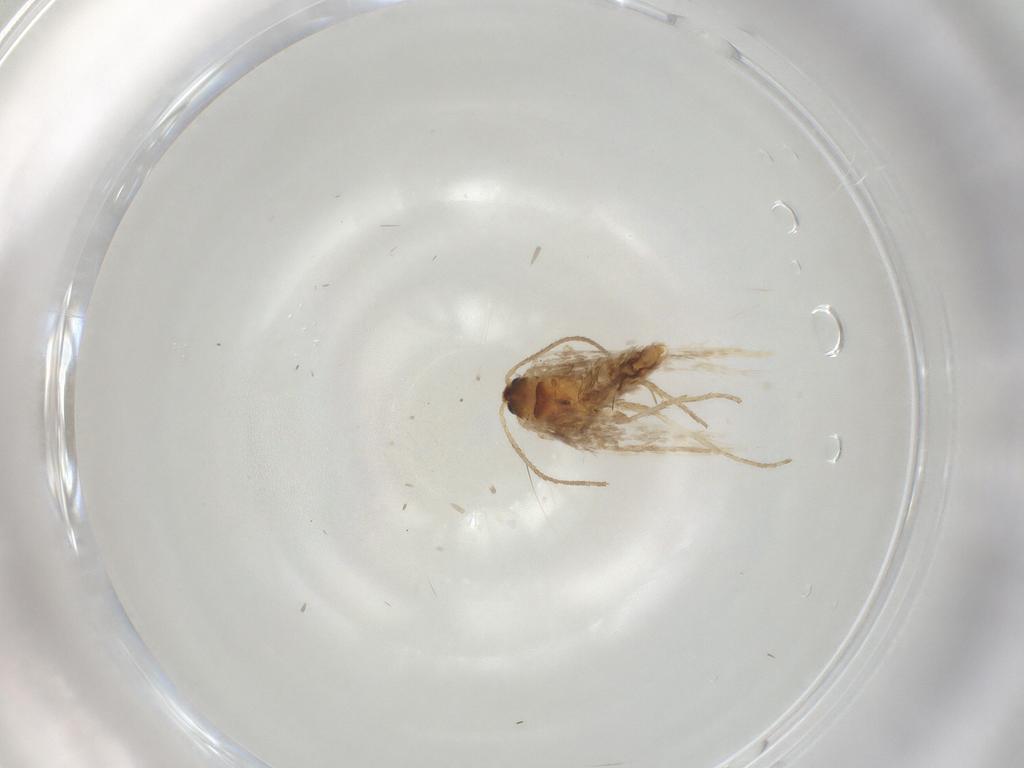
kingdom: Animalia
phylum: Arthropoda
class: Insecta
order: Lepidoptera
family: Nepticulidae
